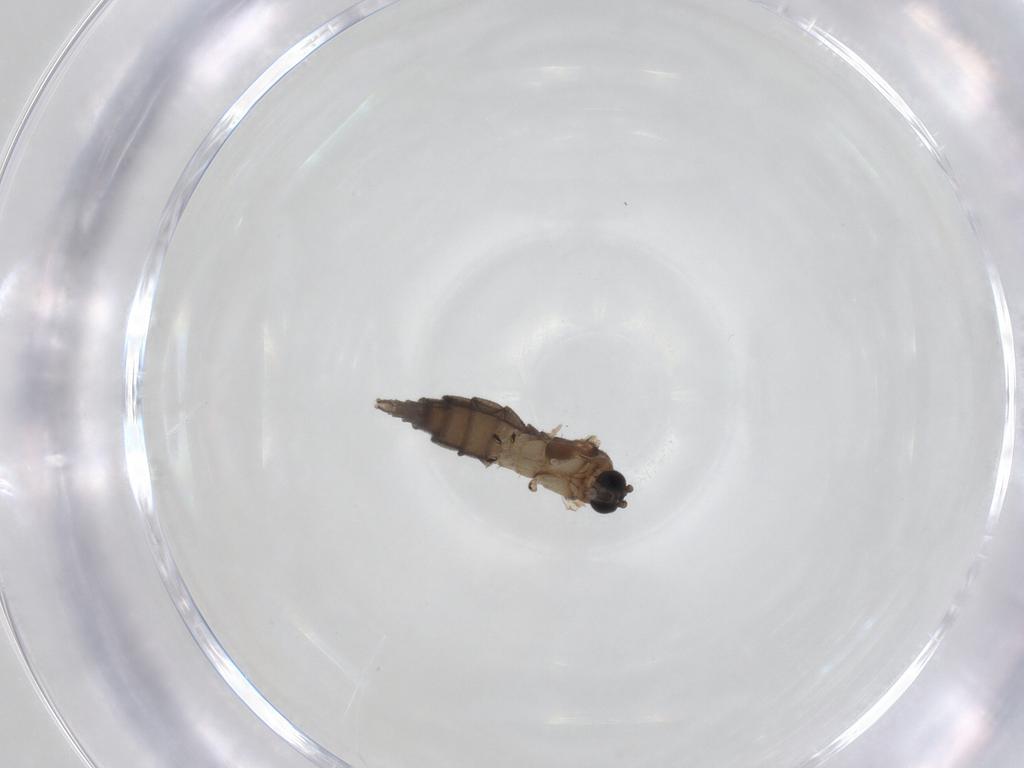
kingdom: Animalia
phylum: Arthropoda
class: Insecta
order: Diptera
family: Sciaridae
